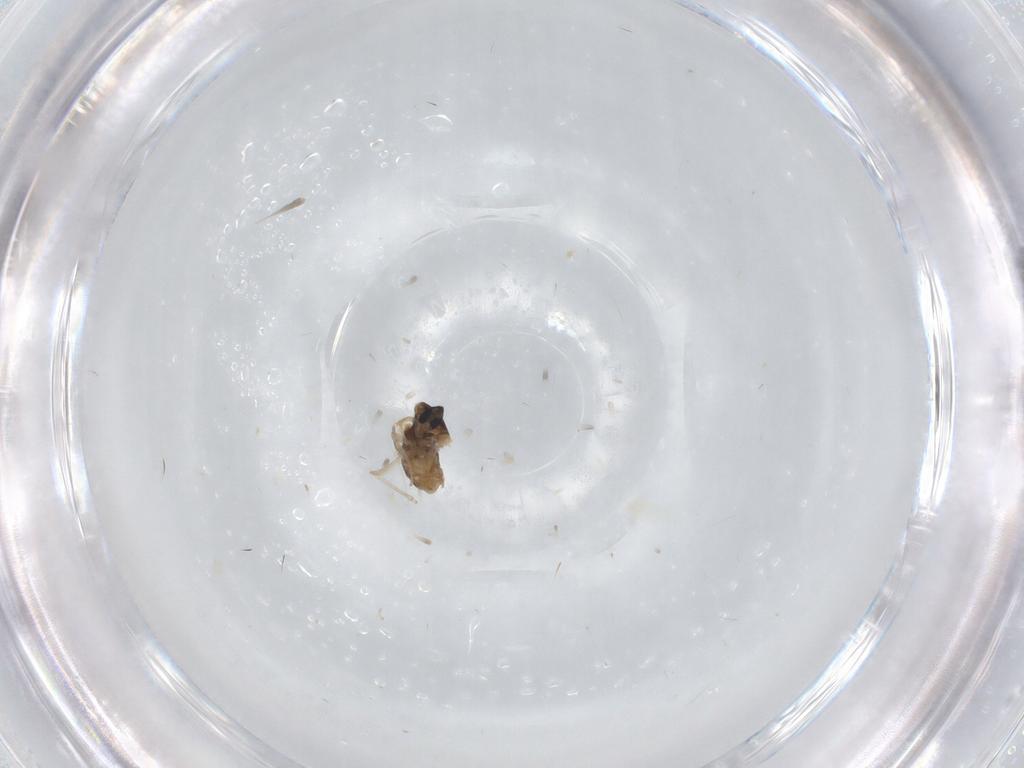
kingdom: Animalia
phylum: Arthropoda
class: Insecta
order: Diptera
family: Cecidomyiidae
